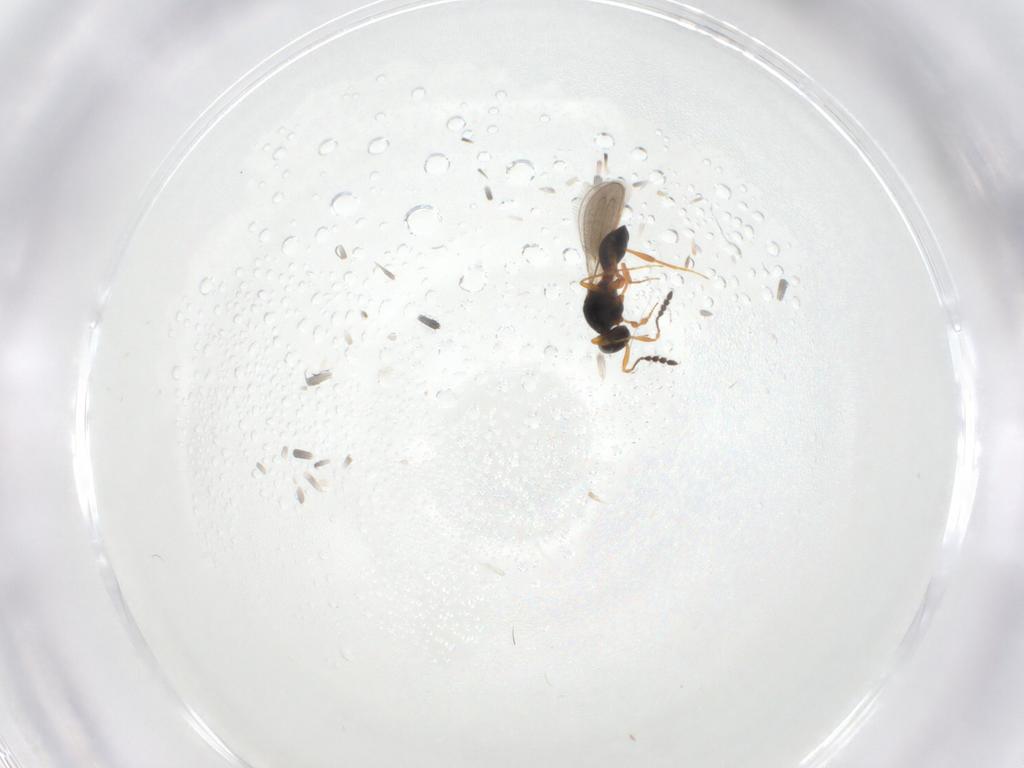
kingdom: Animalia
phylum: Arthropoda
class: Insecta
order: Hymenoptera
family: Platygastridae
